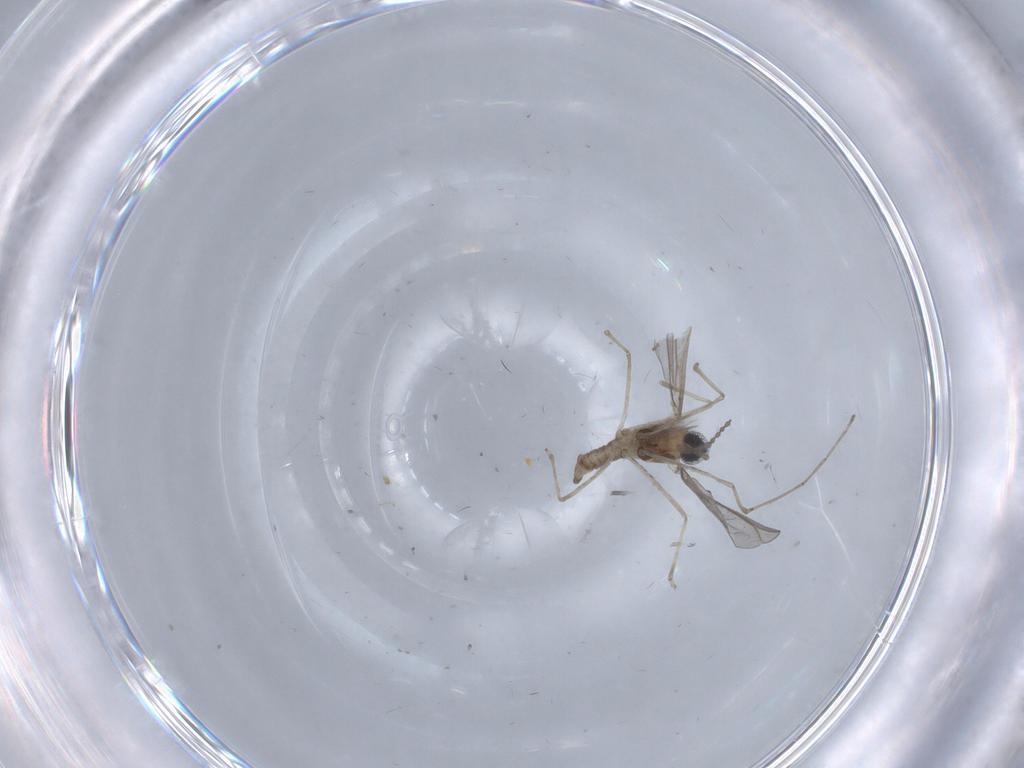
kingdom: Animalia
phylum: Arthropoda
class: Insecta
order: Diptera
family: Cecidomyiidae
